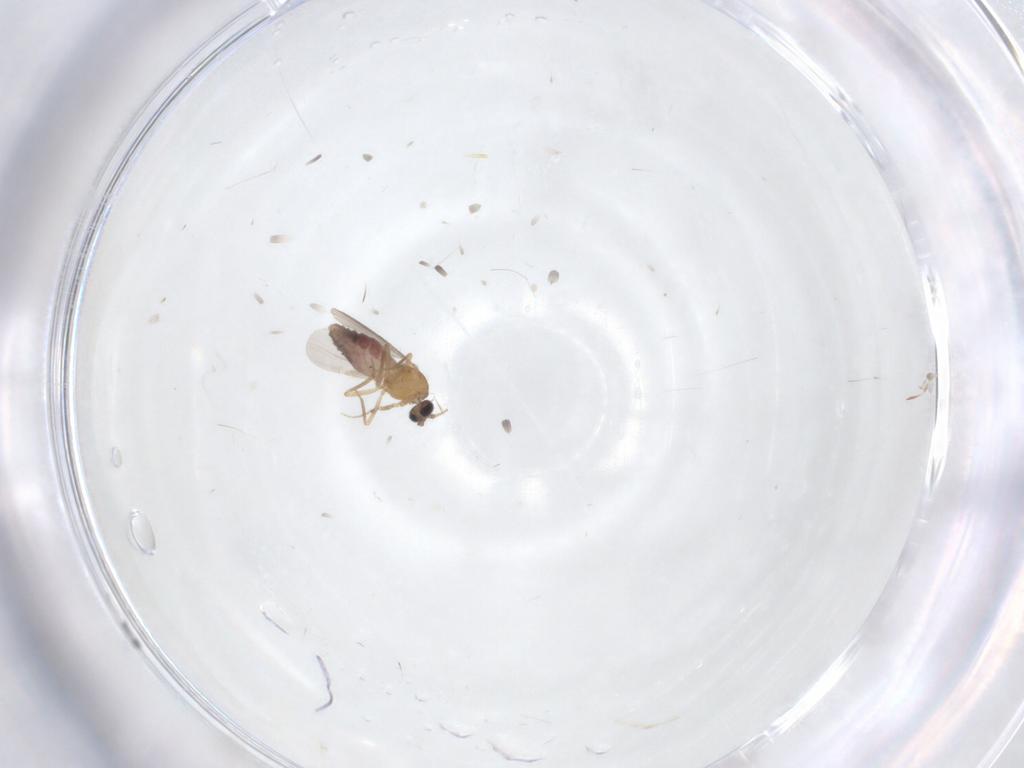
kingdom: Animalia
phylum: Arthropoda
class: Insecta
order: Diptera
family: Ceratopogonidae
